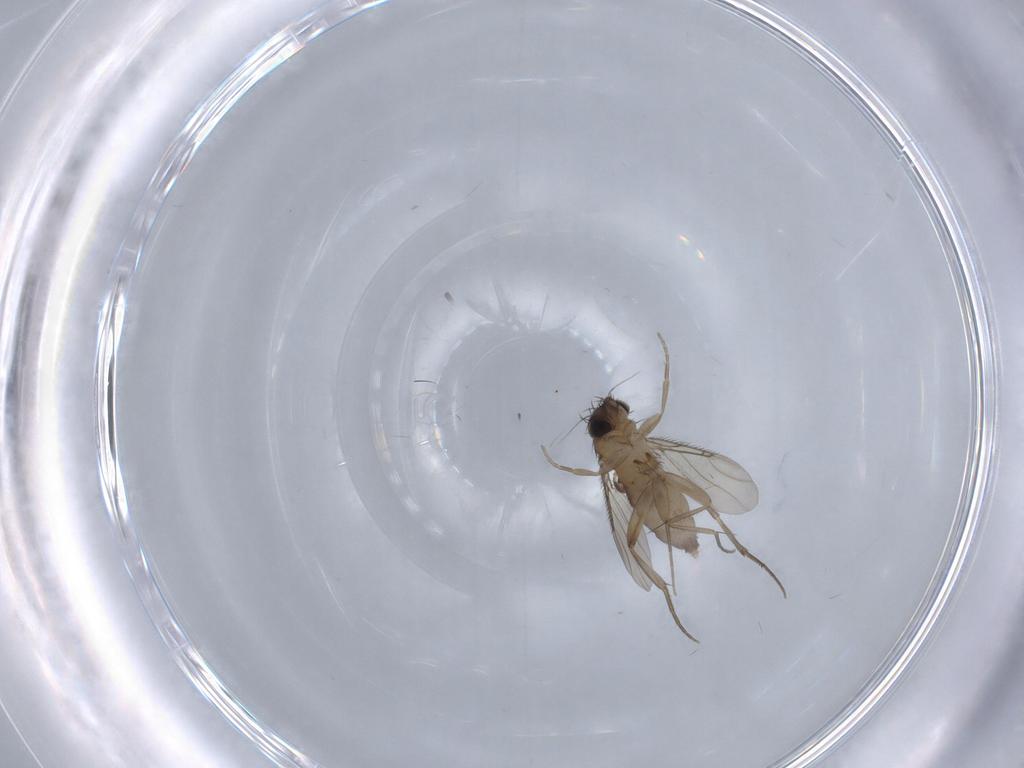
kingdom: Animalia
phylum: Arthropoda
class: Insecta
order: Diptera
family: Phoridae
